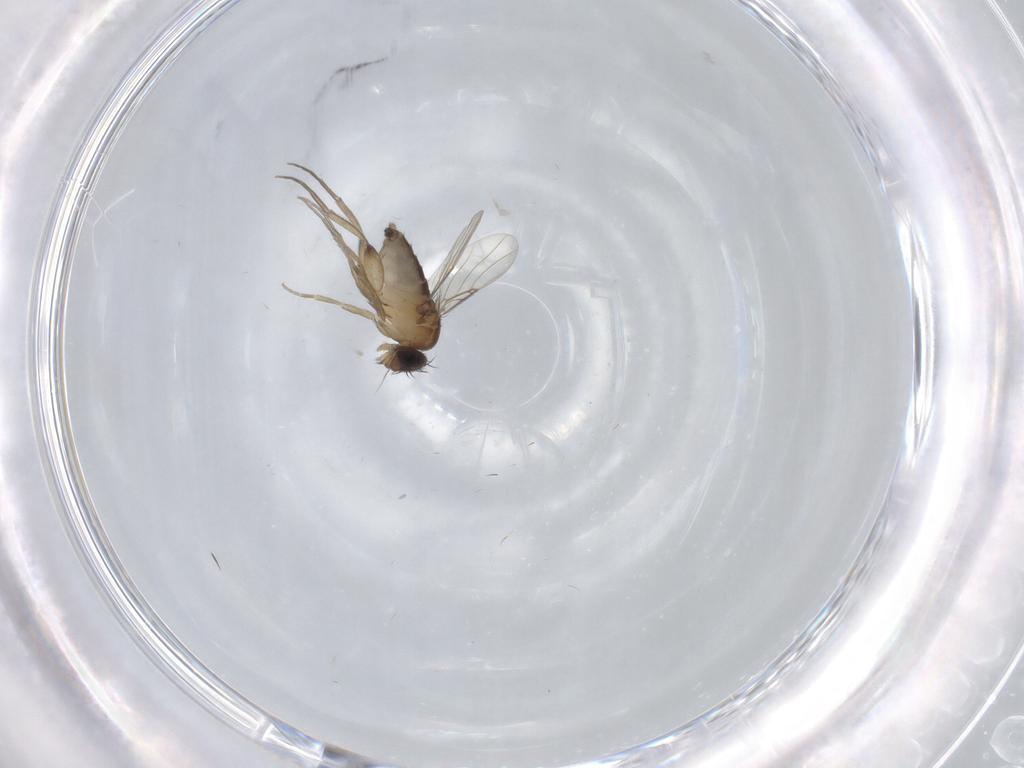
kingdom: Animalia
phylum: Arthropoda
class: Insecta
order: Diptera
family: Phoridae
